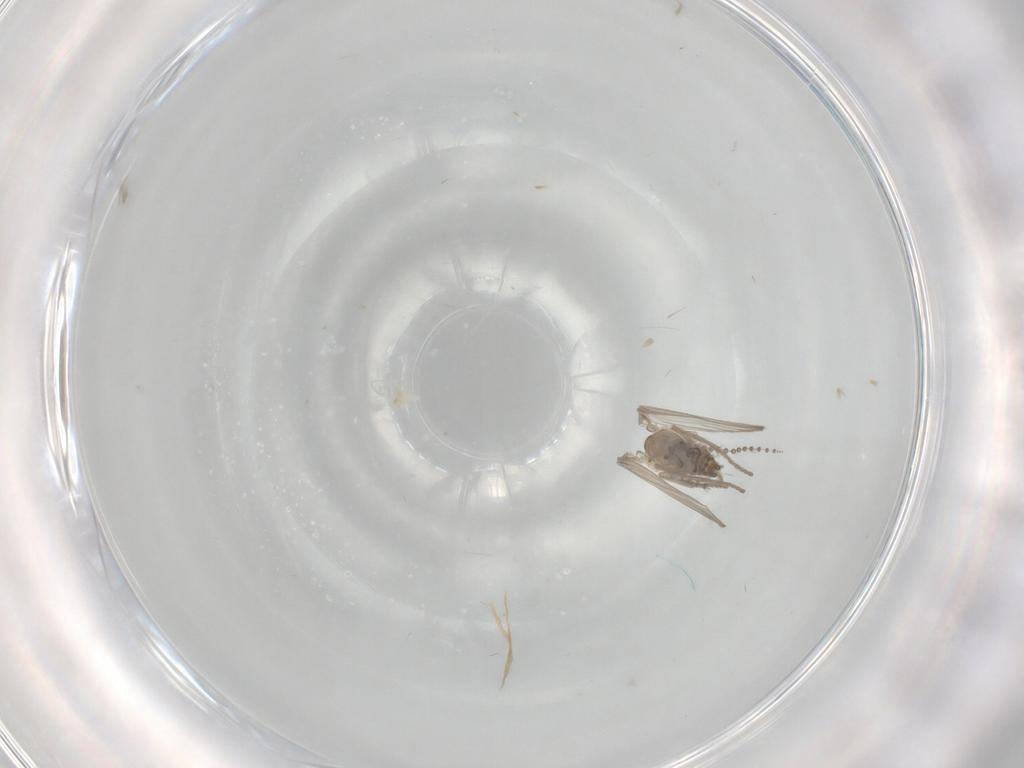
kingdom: Animalia
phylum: Arthropoda
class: Insecta
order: Diptera
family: Psychodidae
